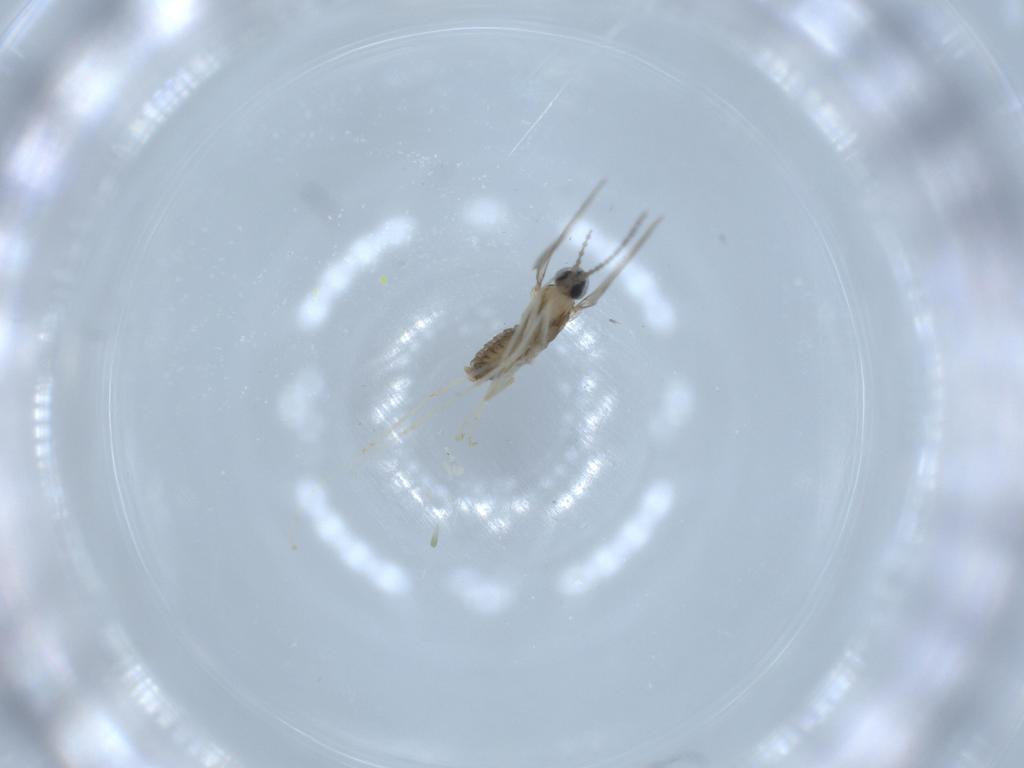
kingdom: Animalia
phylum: Arthropoda
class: Insecta
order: Diptera
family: Cecidomyiidae
